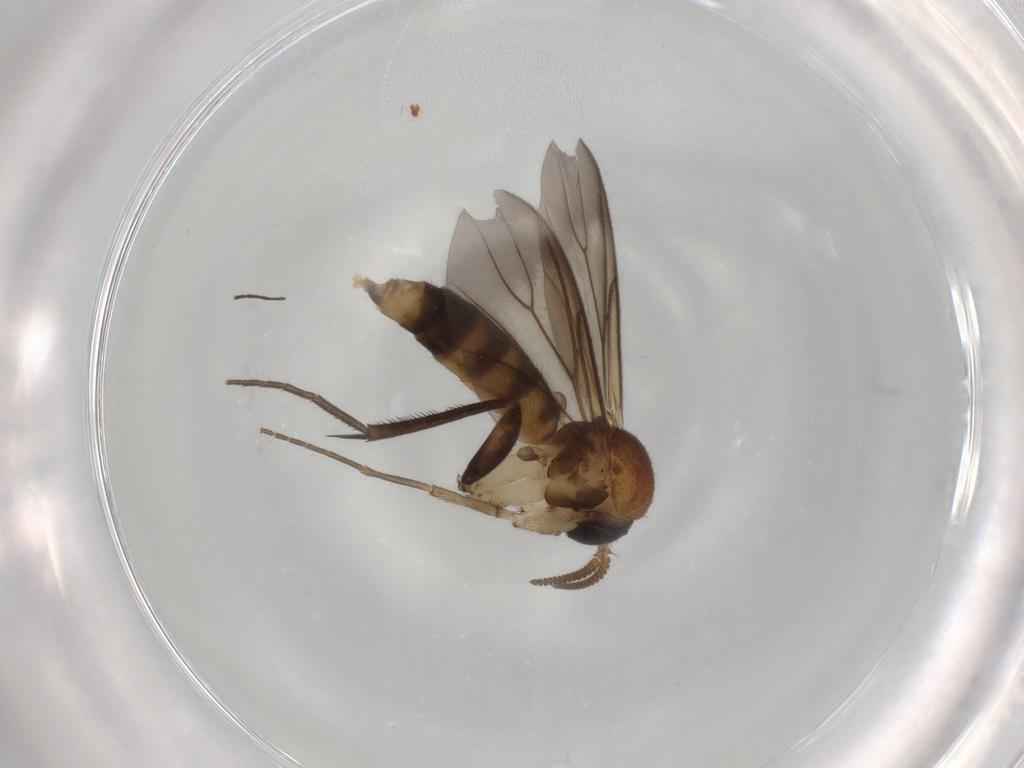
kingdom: Animalia
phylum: Arthropoda
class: Insecta
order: Diptera
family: Mycetophilidae
